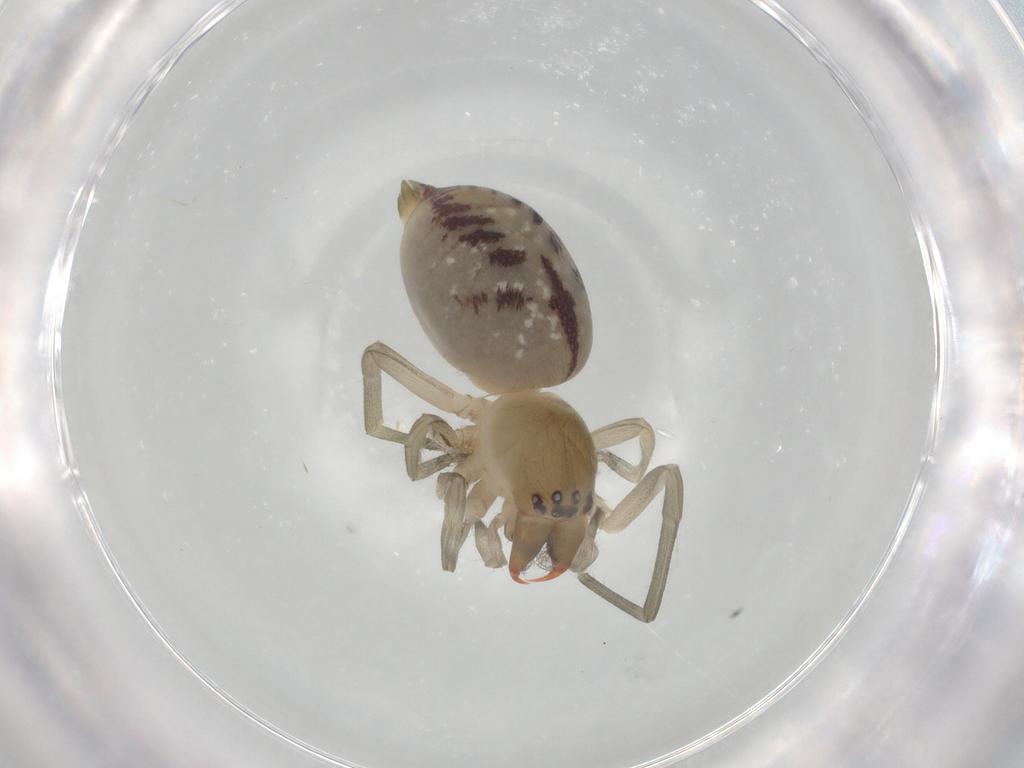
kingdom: Animalia
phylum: Arthropoda
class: Arachnida
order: Araneae
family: Cheiracanthiidae
